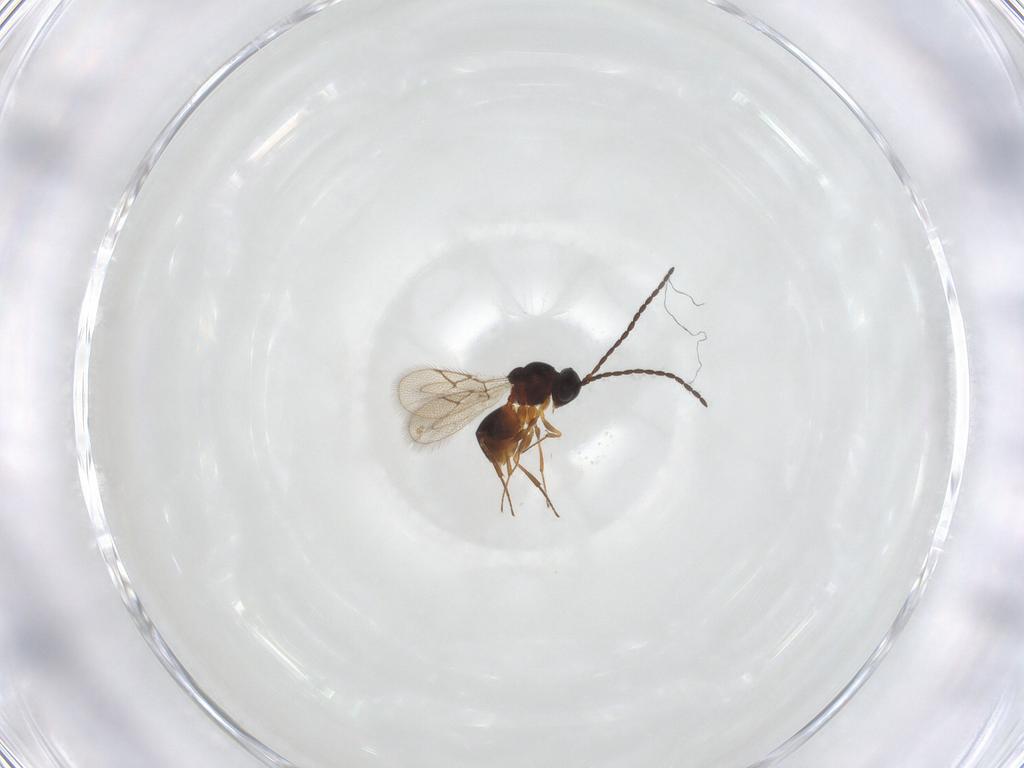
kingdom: Animalia
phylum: Arthropoda
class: Insecta
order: Hymenoptera
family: Figitidae
